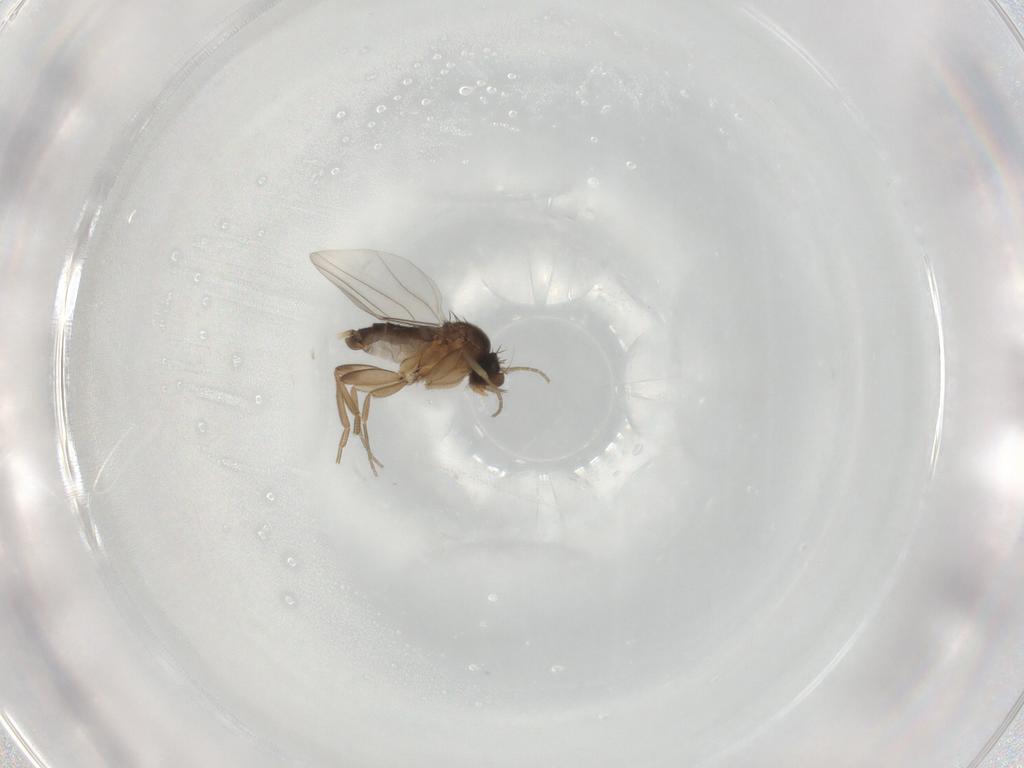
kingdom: Animalia
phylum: Arthropoda
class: Insecta
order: Diptera
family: Phoridae
